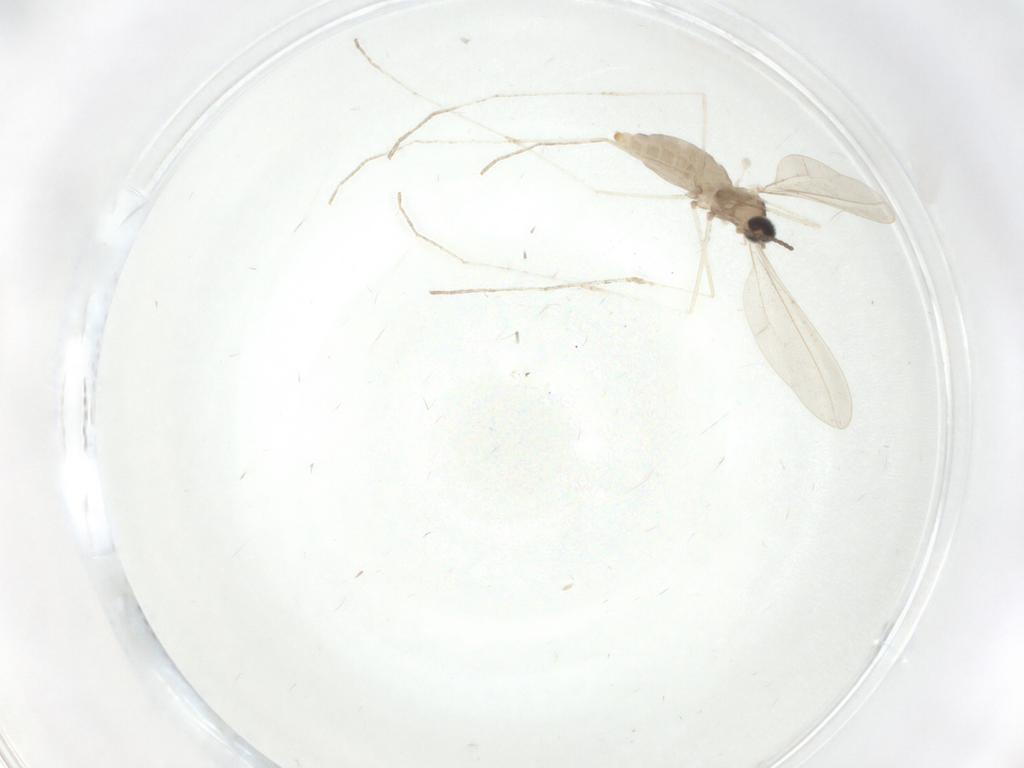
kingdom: Animalia
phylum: Arthropoda
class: Insecta
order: Diptera
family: Cecidomyiidae
